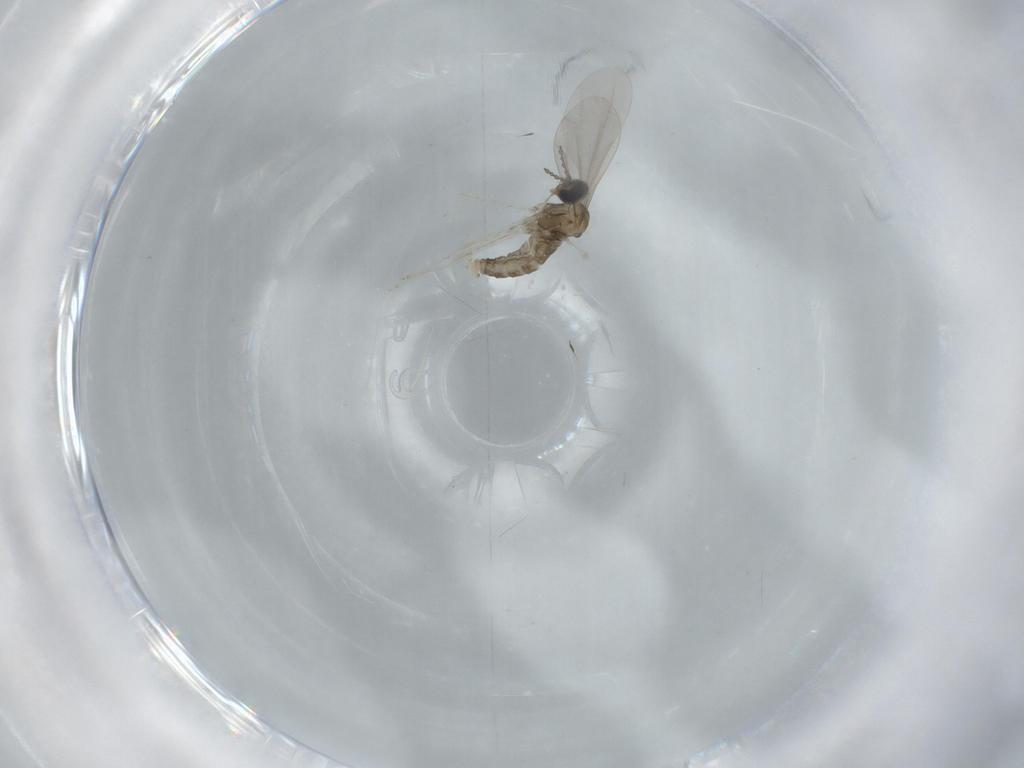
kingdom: Animalia
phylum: Arthropoda
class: Insecta
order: Diptera
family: Cecidomyiidae
